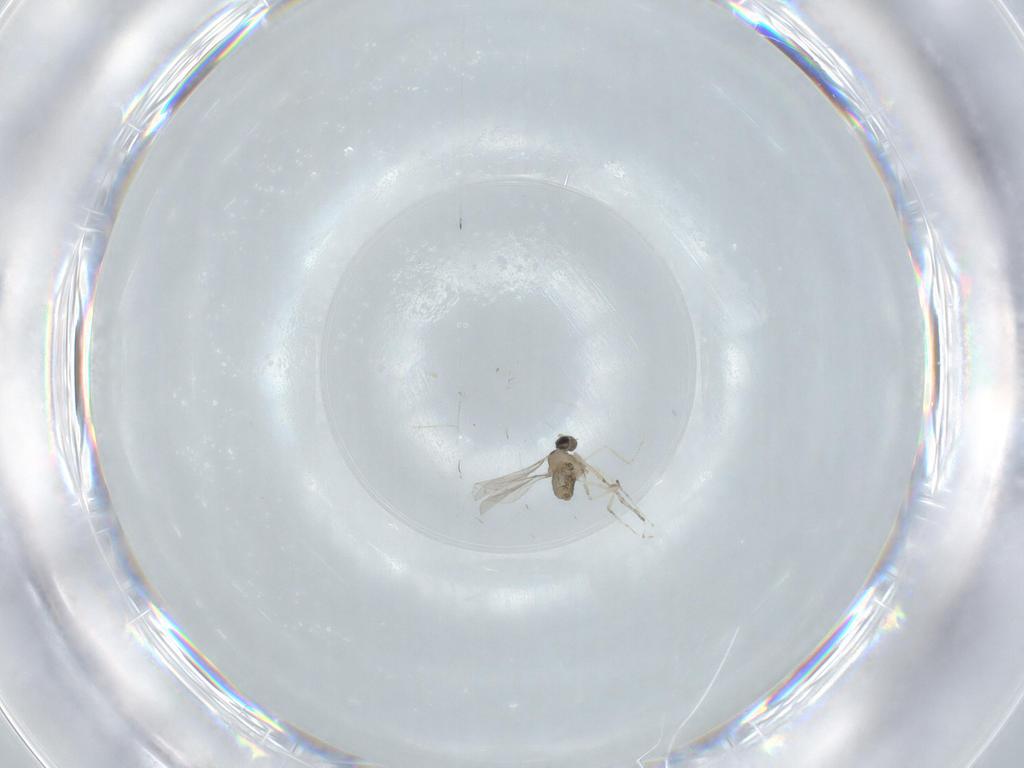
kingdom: Animalia
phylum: Arthropoda
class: Insecta
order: Diptera
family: Cecidomyiidae
